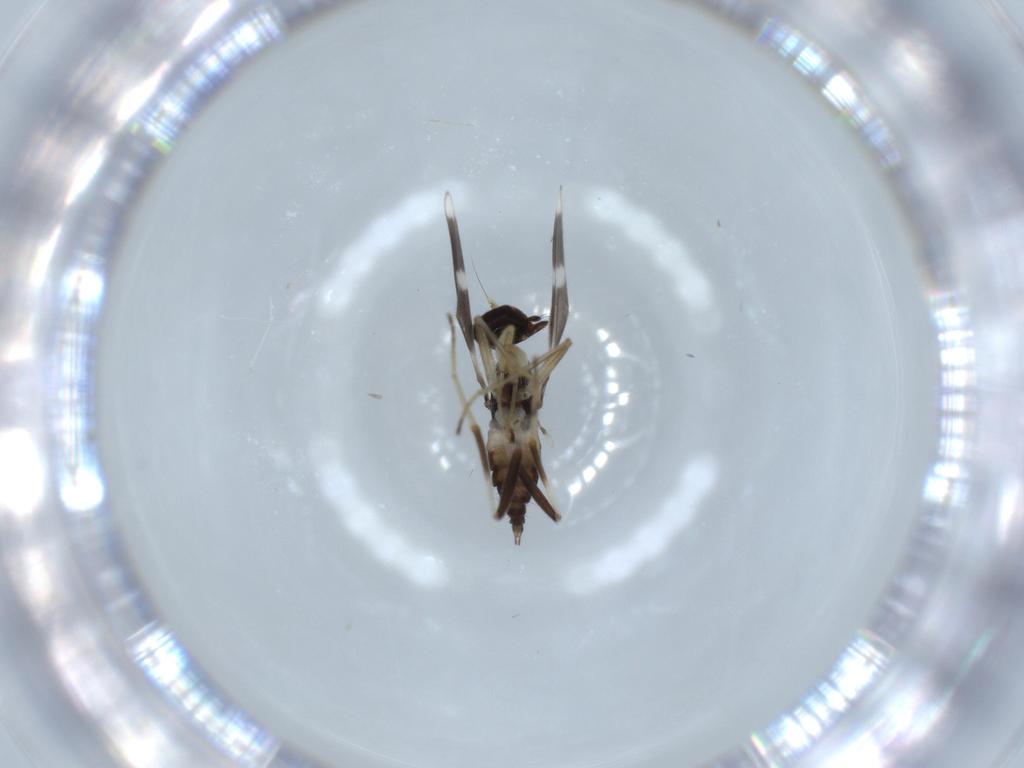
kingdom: Animalia
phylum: Arthropoda
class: Insecta
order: Diptera
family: Hybotidae
